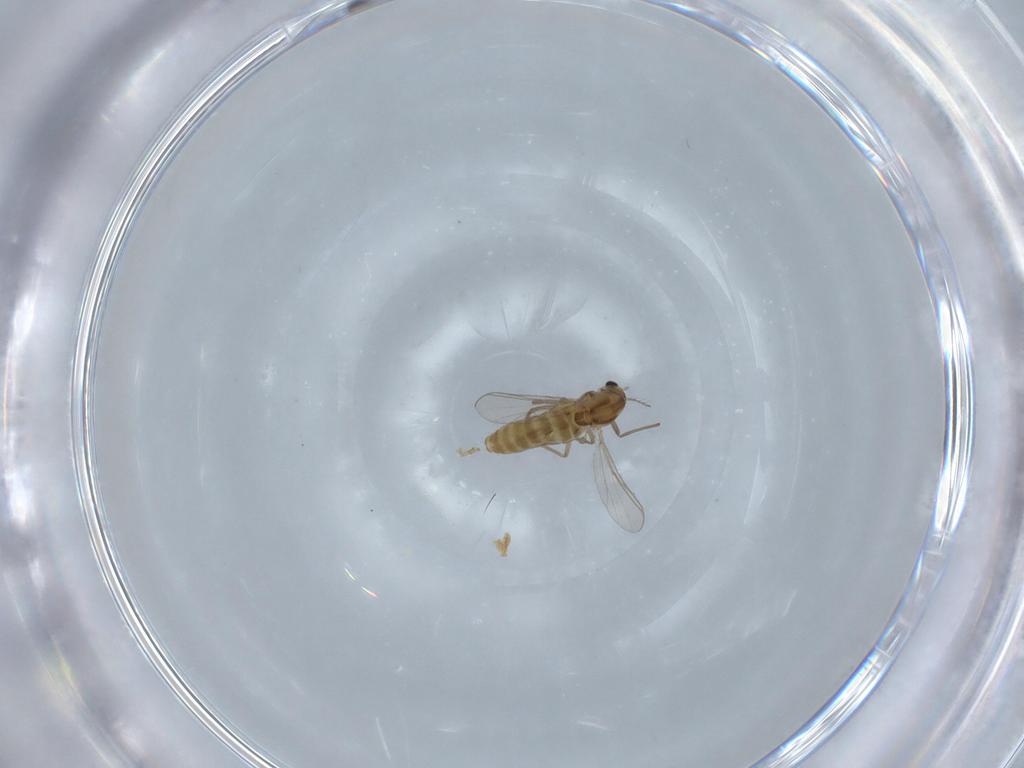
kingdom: Animalia
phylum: Arthropoda
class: Insecta
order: Diptera
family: Chironomidae
